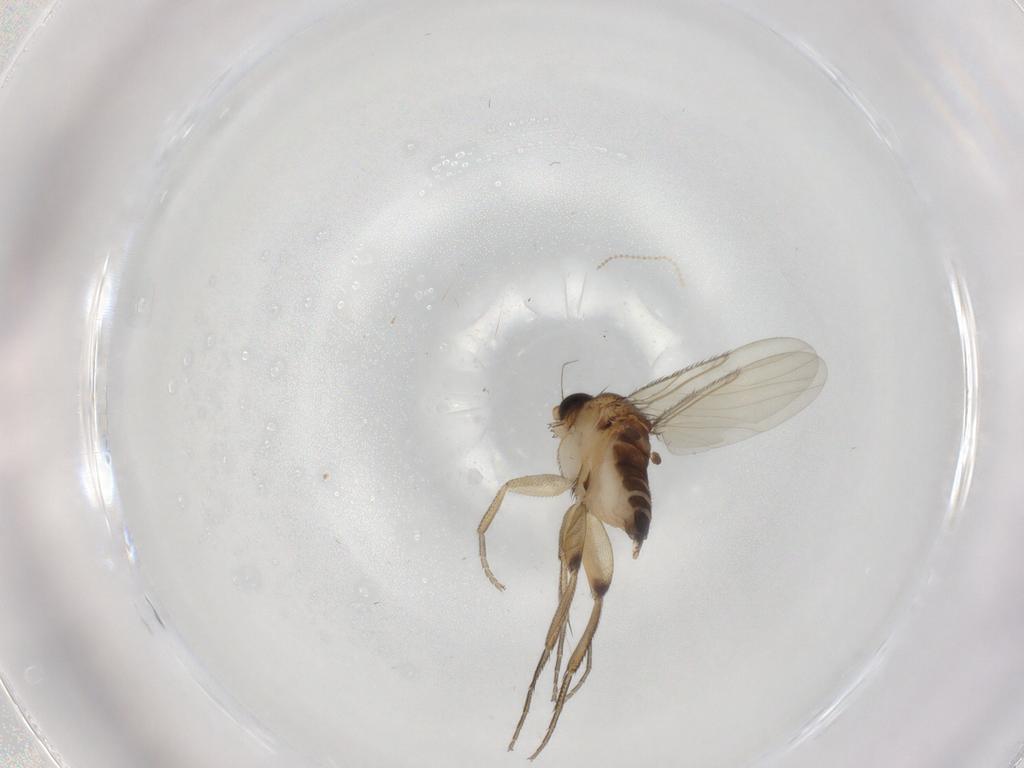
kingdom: Animalia
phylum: Arthropoda
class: Insecta
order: Diptera
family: Phoridae
